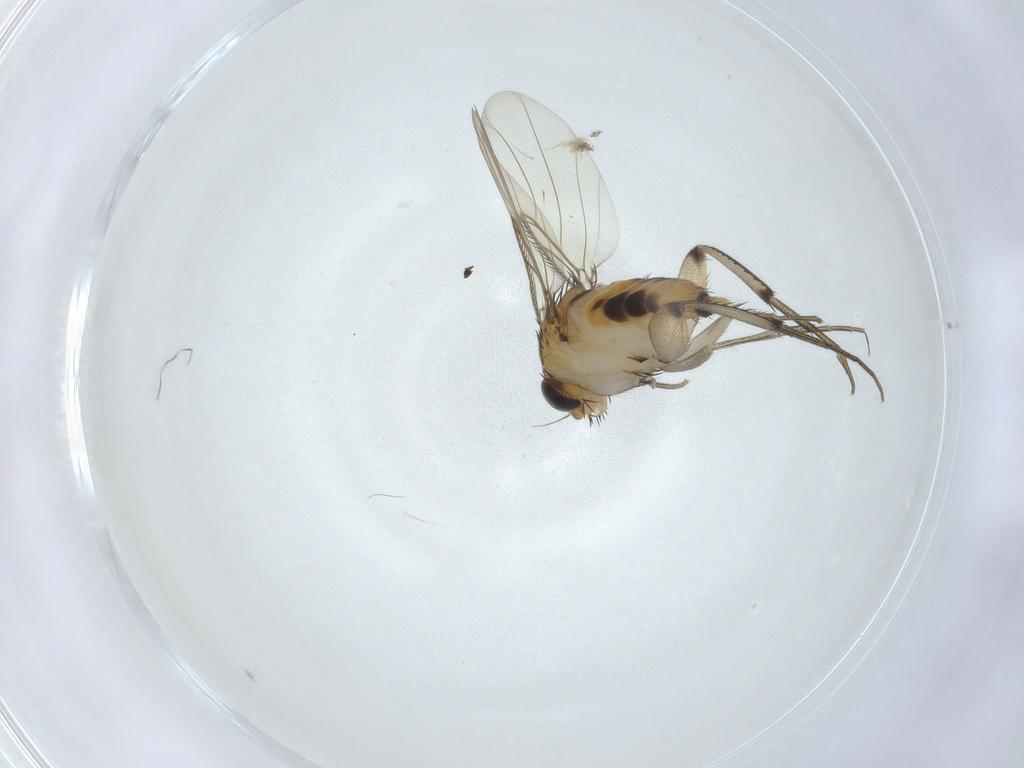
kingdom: Animalia
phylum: Arthropoda
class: Insecta
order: Diptera
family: Phoridae
